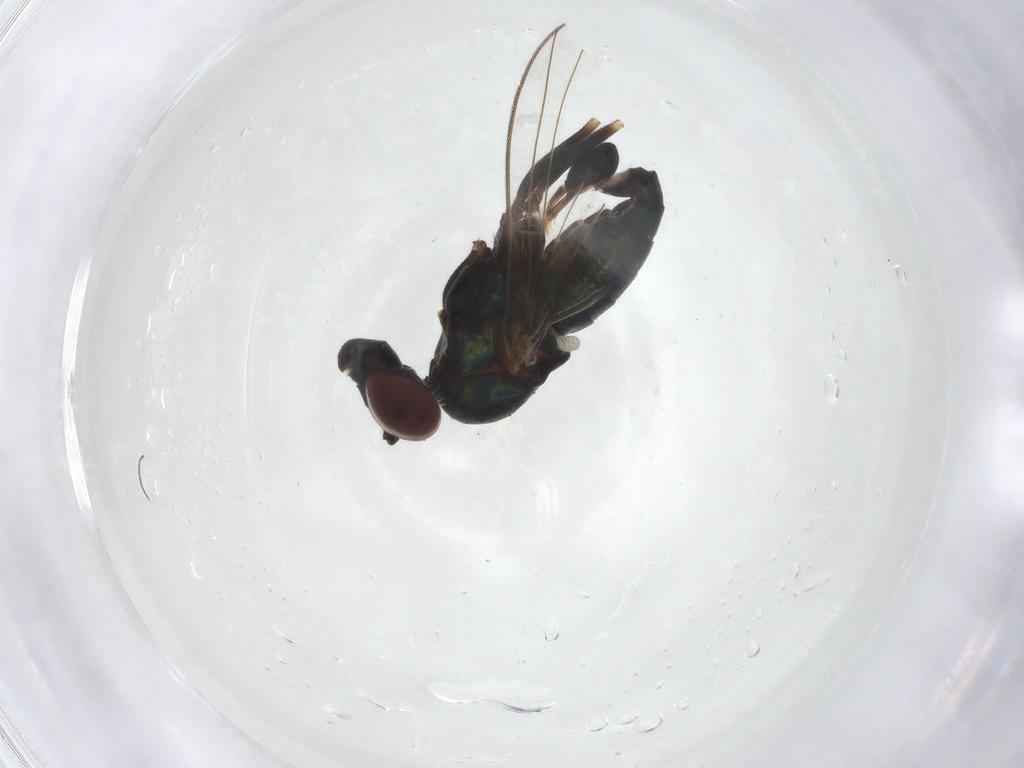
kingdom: Animalia
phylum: Arthropoda
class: Insecta
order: Diptera
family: Dolichopodidae
